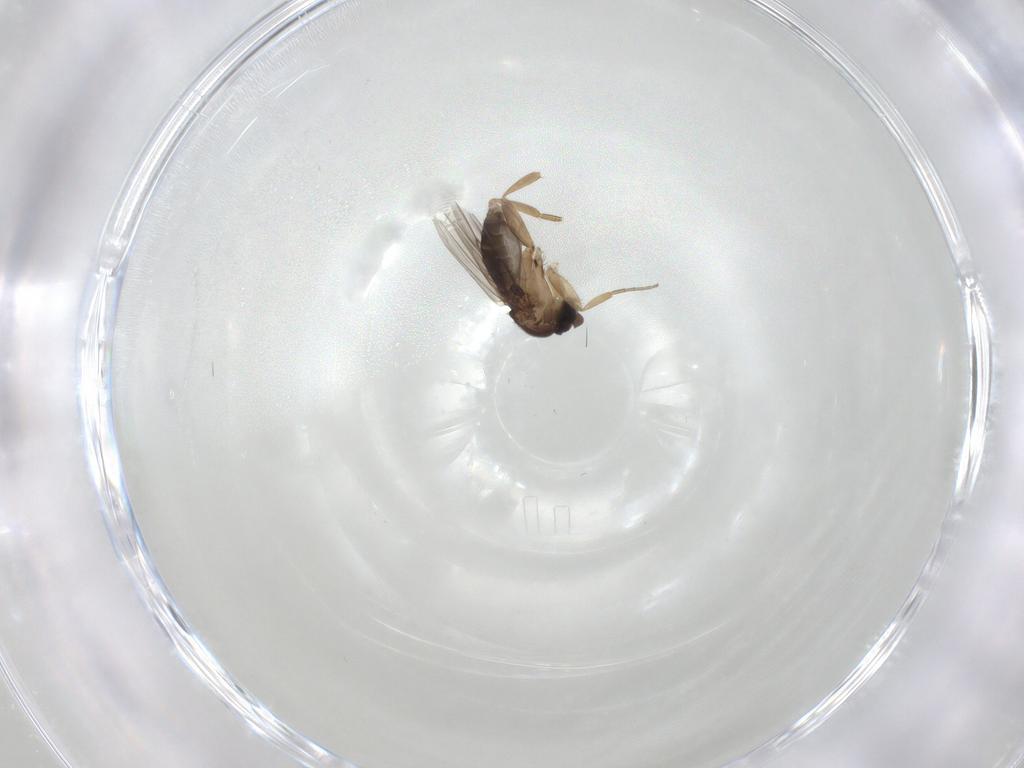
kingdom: Animalia
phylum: Arthropoda
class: Insecta
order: Diptera
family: Phoridae
